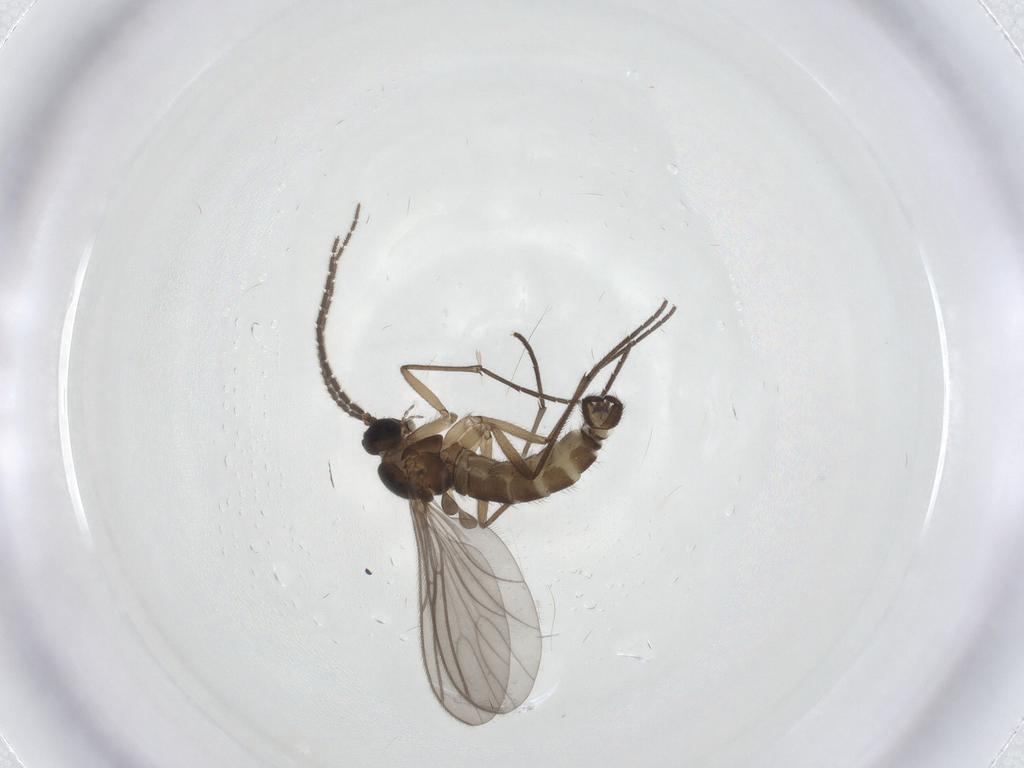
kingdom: Animalia
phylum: Arthropoda
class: Insecta
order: Diptera
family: Sciaridae
